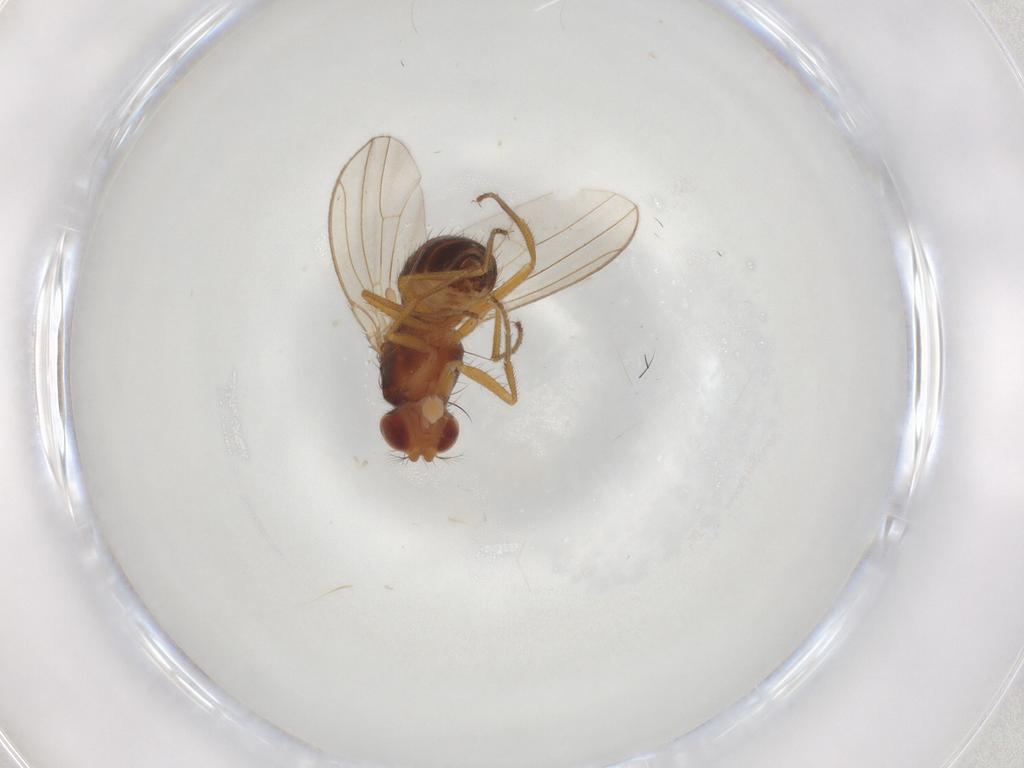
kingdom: Animalia
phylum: Arthropoda
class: Insecta
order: Diptera
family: Drosophilidae
